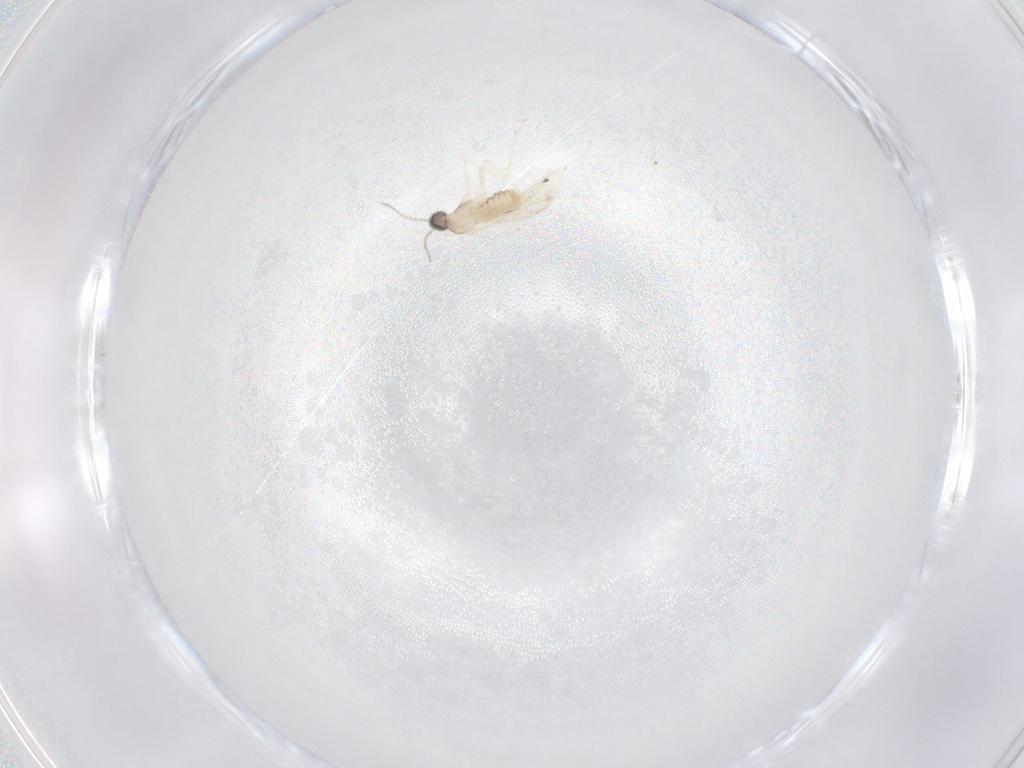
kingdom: Animalia
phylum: Arthropoda
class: Insecta
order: Diptera
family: Cecidomyiidae
